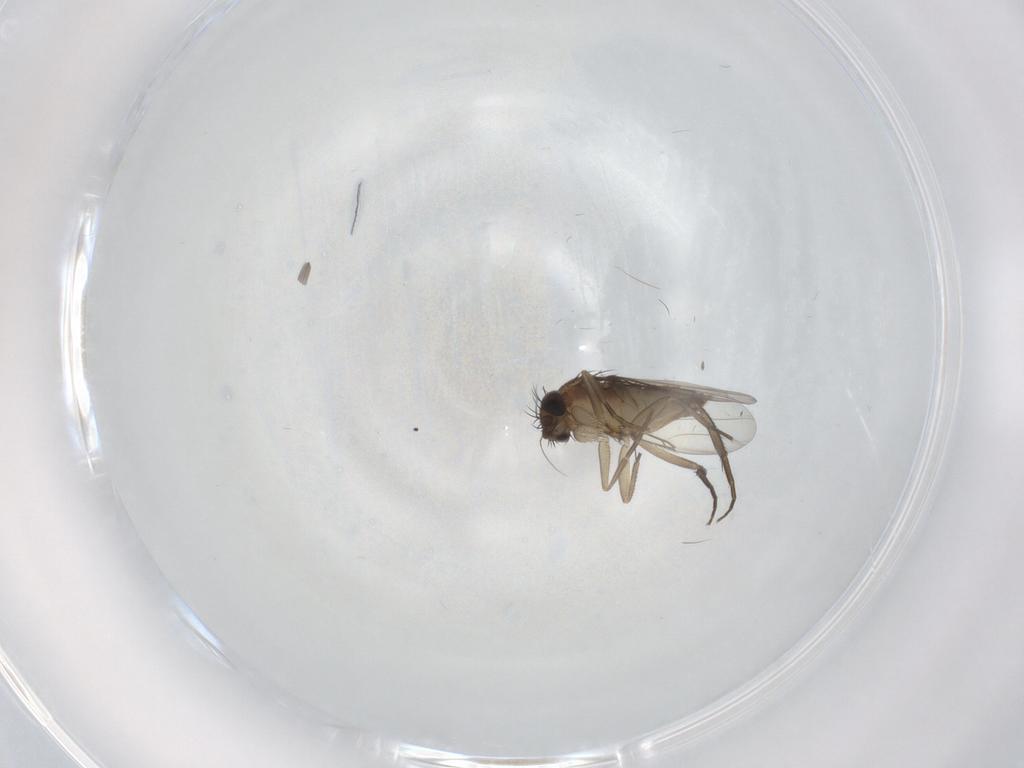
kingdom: Animalia
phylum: Arthropoda
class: Insecta
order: Diptera
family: Phoridae
